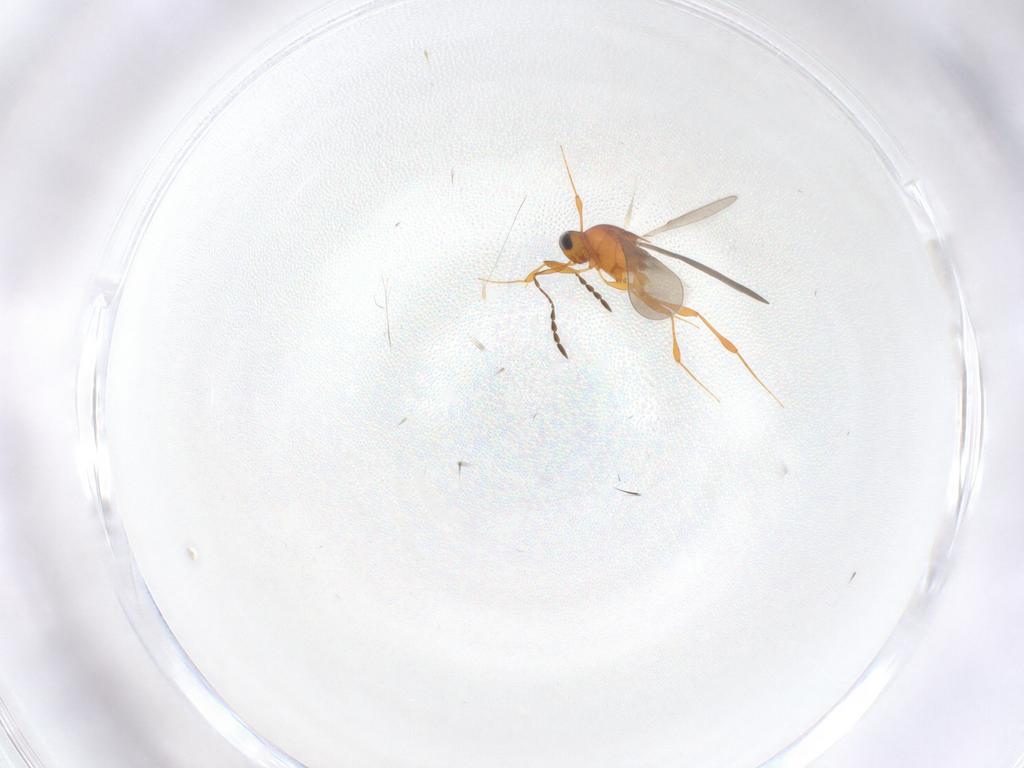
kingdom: Animalia
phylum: Arthropoda
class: Insecta
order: Hymenoptera
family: Platygastridae
